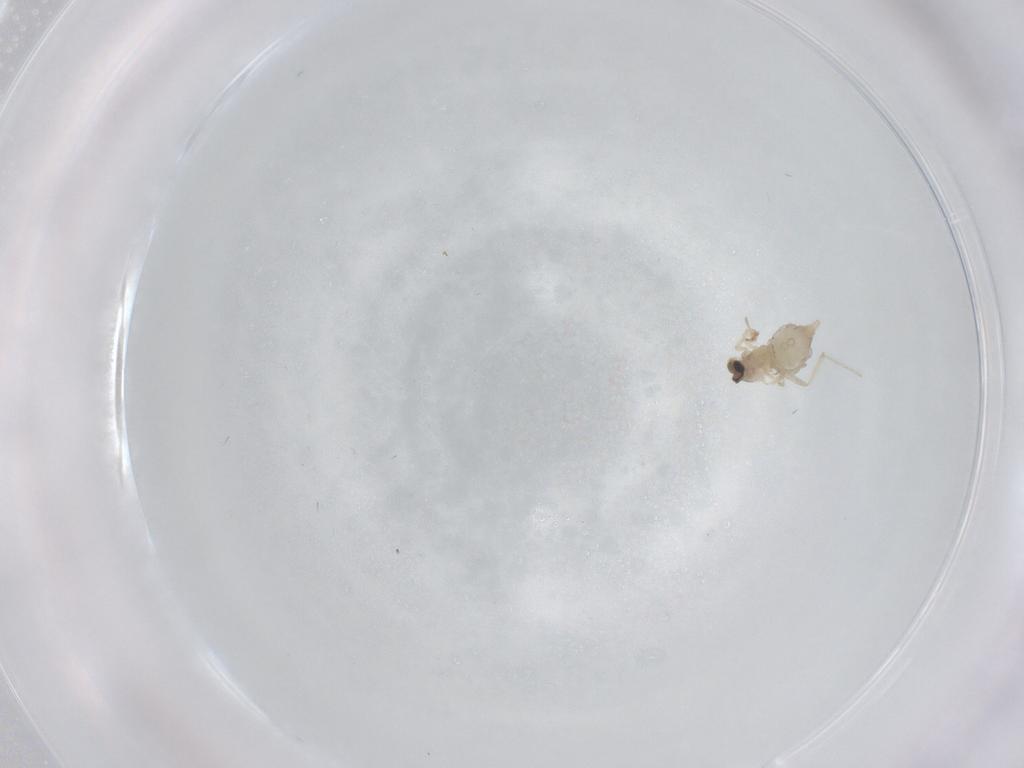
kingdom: Animalia
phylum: Arthropoda
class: Insecta
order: Diptera
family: Cecidomyiidae
